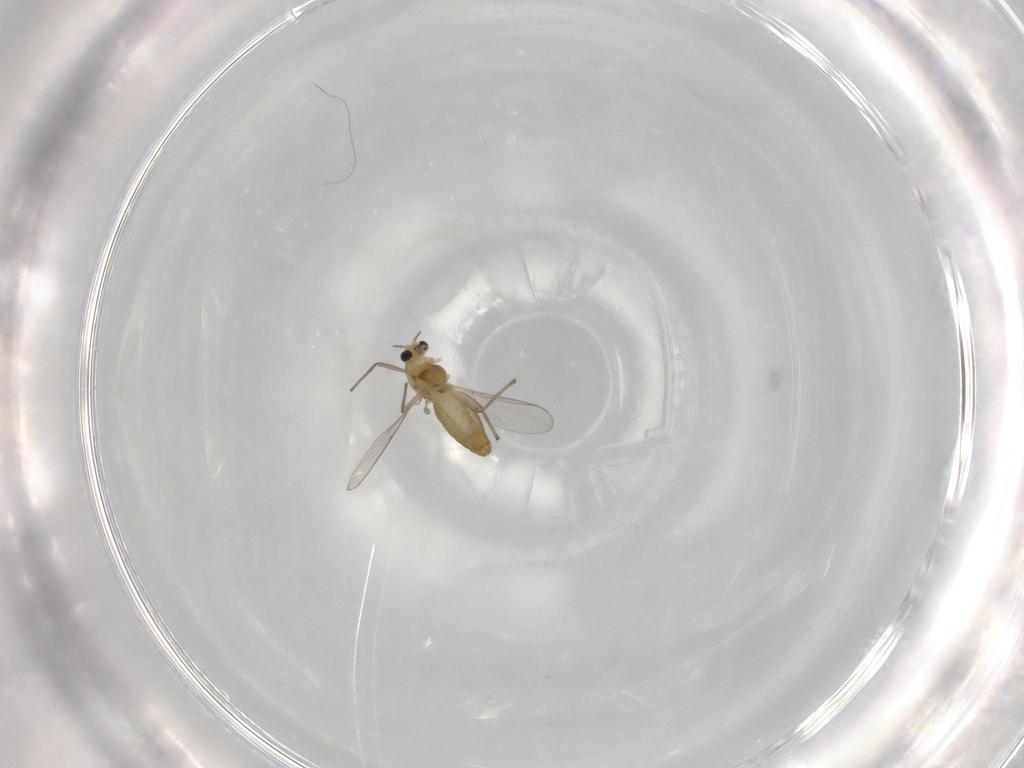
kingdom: Animalia
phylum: Arthropoda
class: Insecta
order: Diptera
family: Chironomidae
